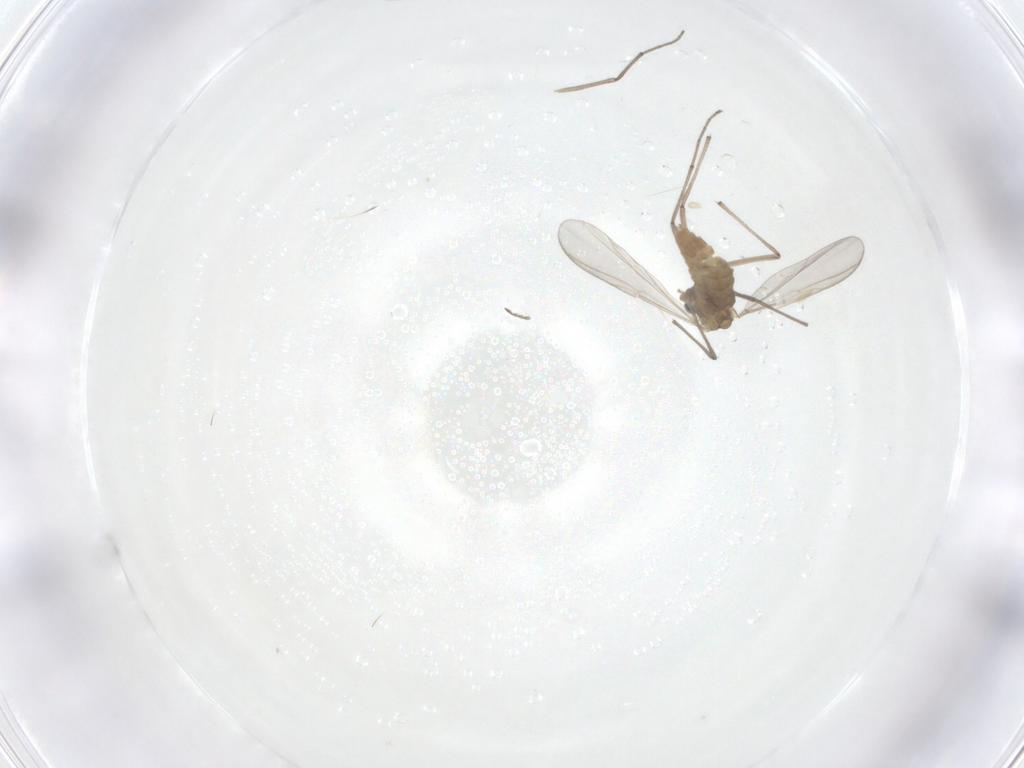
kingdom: Animalia
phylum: Arthropoda
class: Insecta
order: Diptera
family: Chironomidae
